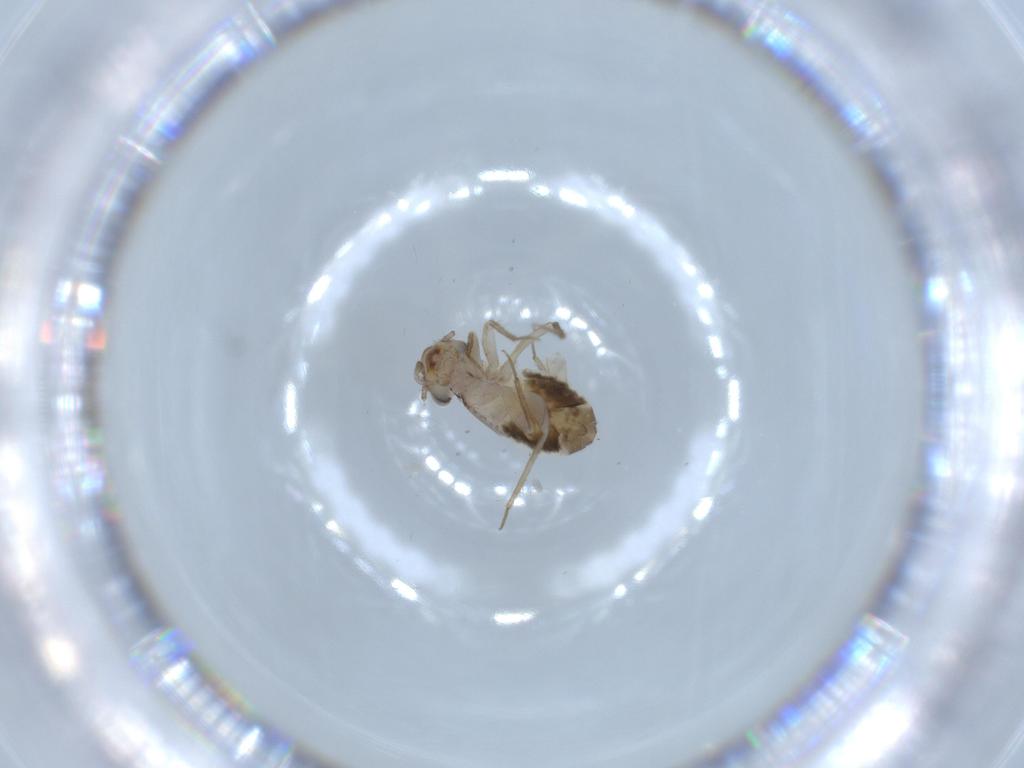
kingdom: Animalia
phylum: Arthropoda
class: Insecta
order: Psocodea
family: Lepidopsocidae
